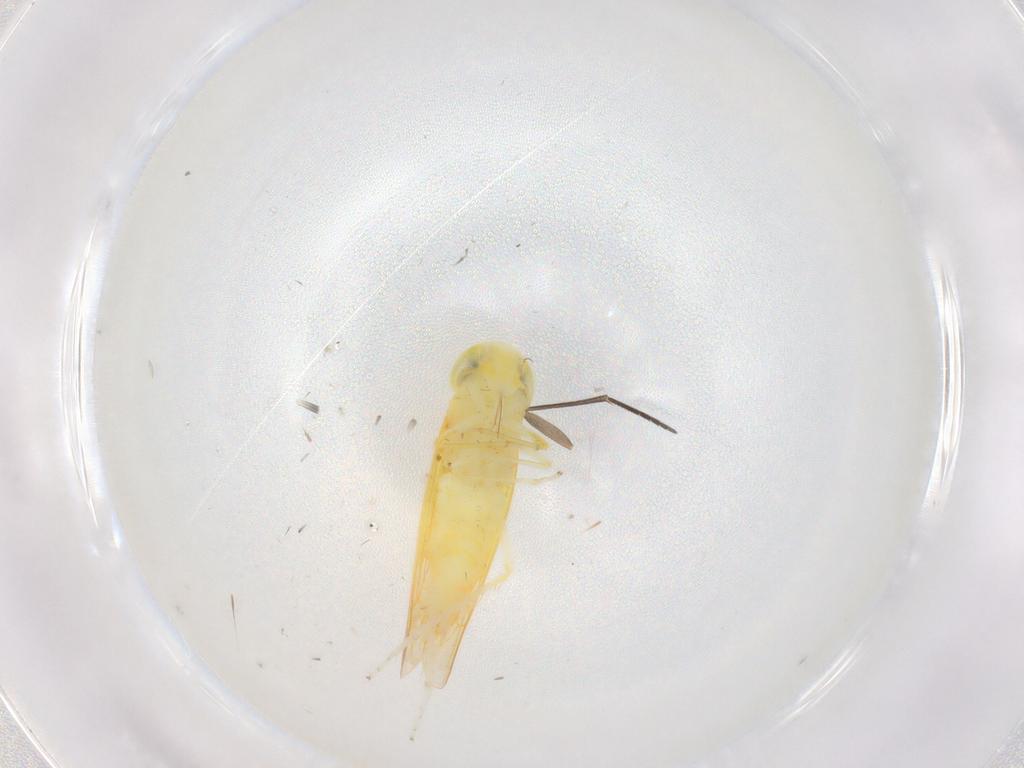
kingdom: Animalia
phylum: Arthropoda
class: Insecta
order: Hemiptera
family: Cicadellidae
